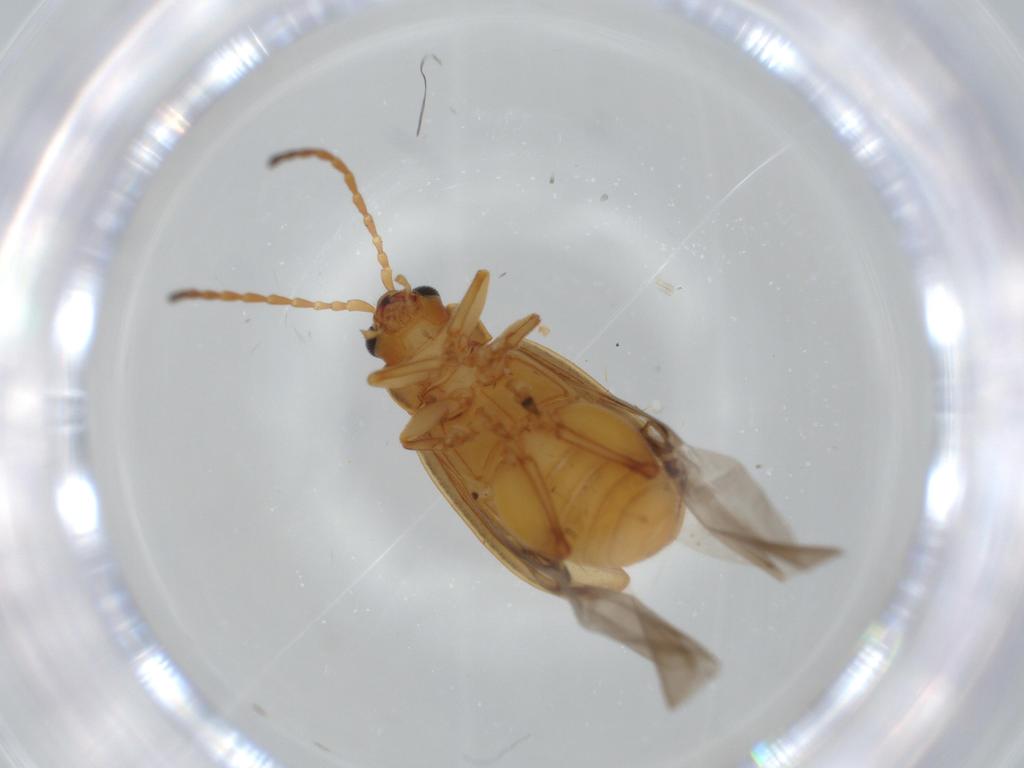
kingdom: Animalia
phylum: Arthropoda
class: Insecta
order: Coleoptera
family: Chrysomelidae
